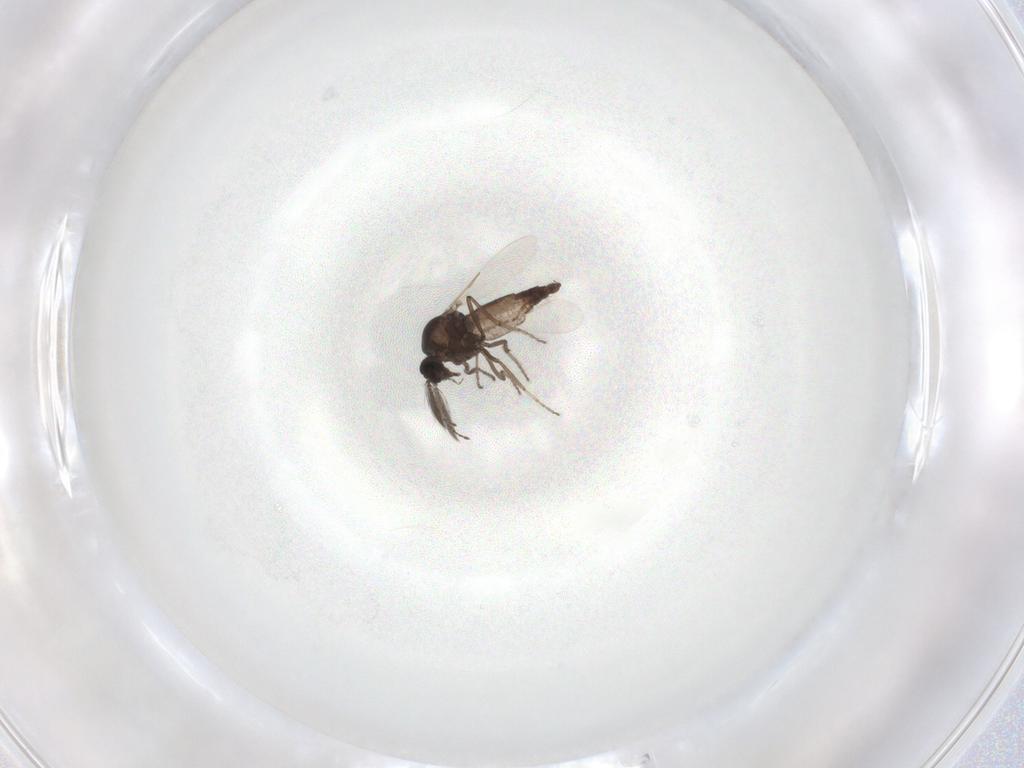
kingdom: Animalia
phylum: Arthropoda
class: Insecta
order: Diptera
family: Ceratopogonidae
